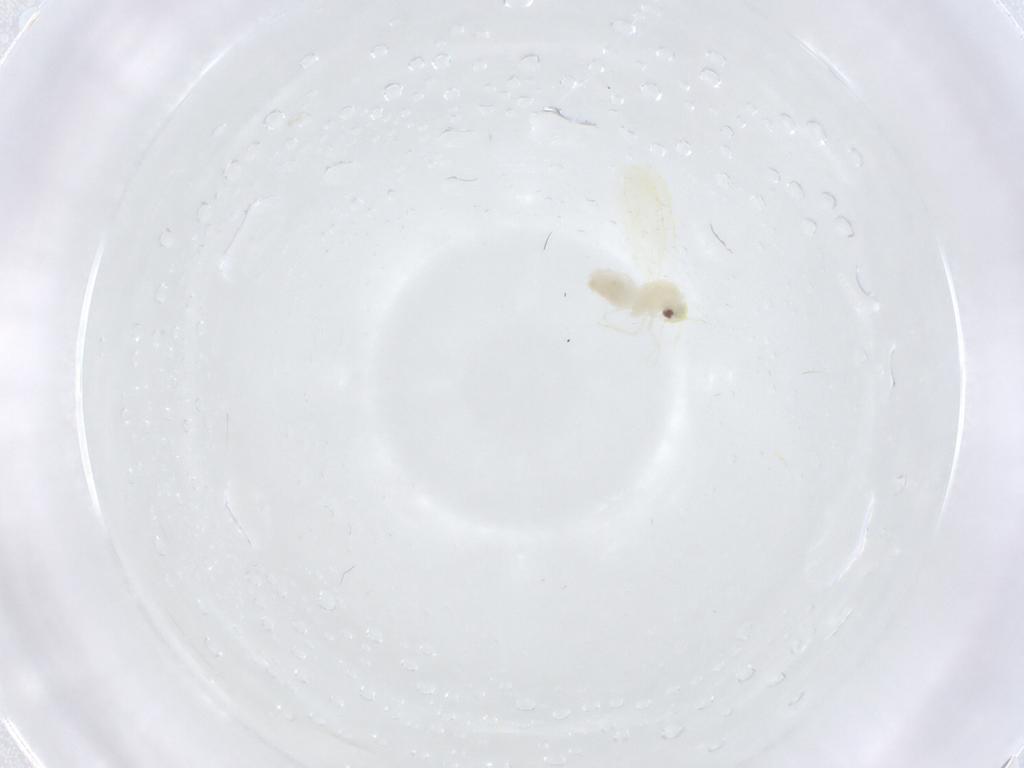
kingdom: Animalia
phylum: Arthropoda
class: Insecta
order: Hemiptera
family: Aleyrodidae
